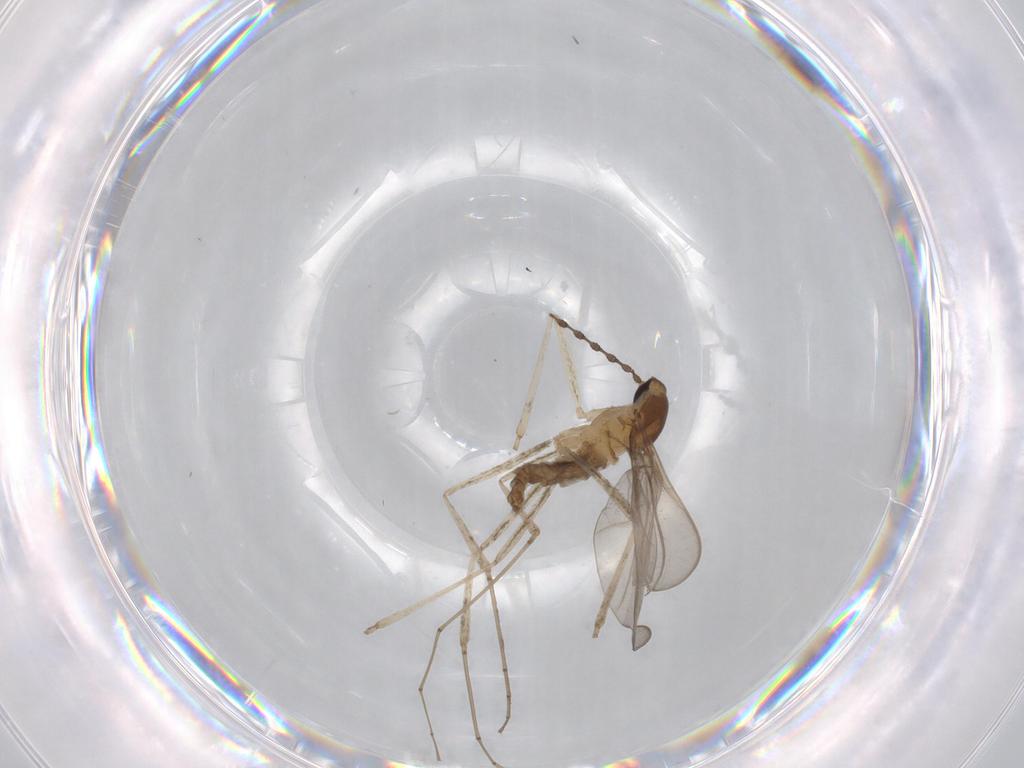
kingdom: Animalia
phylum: Arthropoda
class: Insecta
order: Diptera
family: Cecidomyiidae
